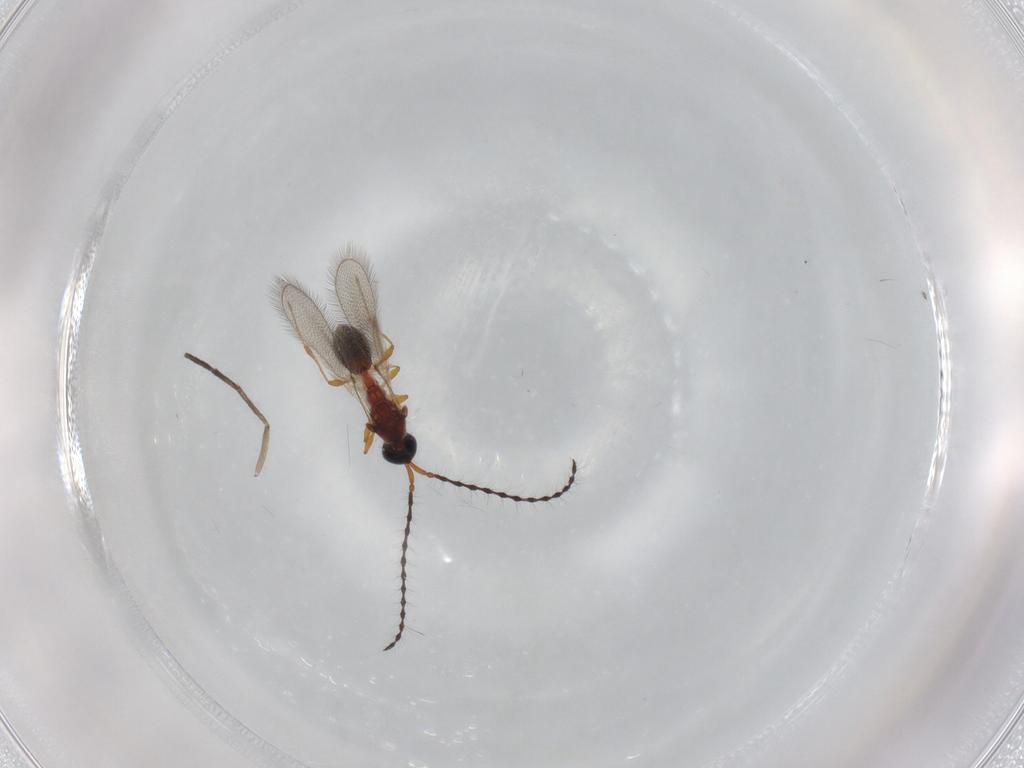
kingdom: Animalia
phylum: Arthropoda
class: Insecta
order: Hymenoptera
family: Diapriidae
